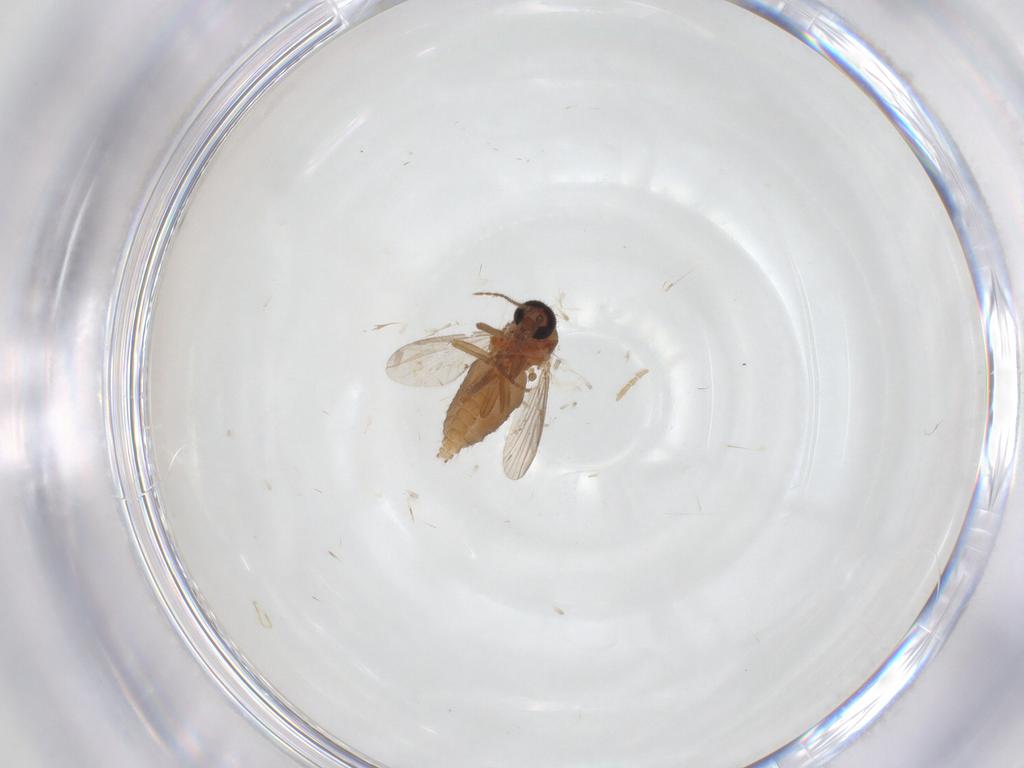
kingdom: Animalia
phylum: Arthropoda
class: Insecta
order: Diptera
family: Ceratopogonidae
